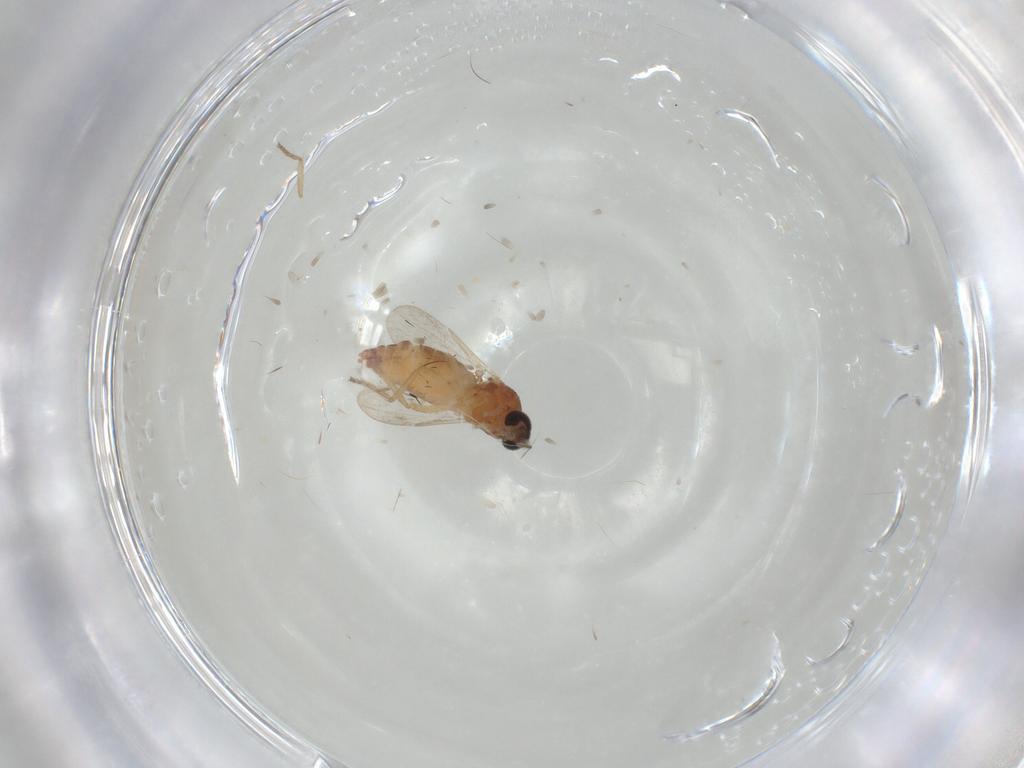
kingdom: Animalia
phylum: Arthropoda
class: Insecta
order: Diptera
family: Ceratopogonidae
